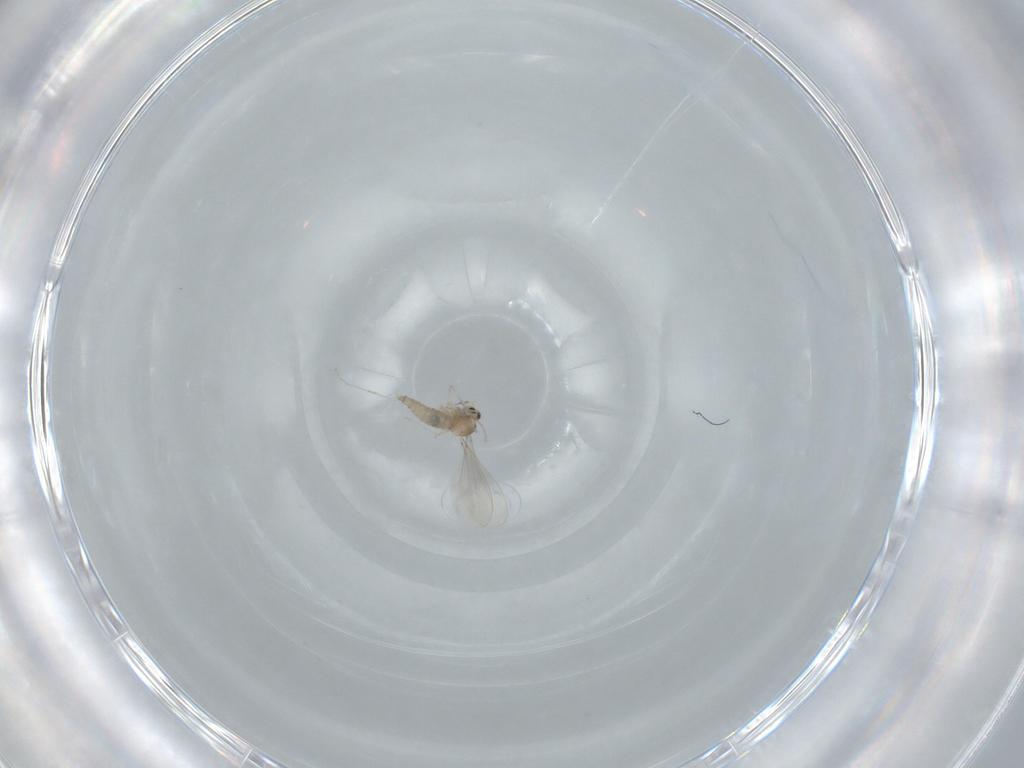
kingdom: Animalia
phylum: Arthropoda
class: Insecta
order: Diptera
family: Cecidomyiidae
